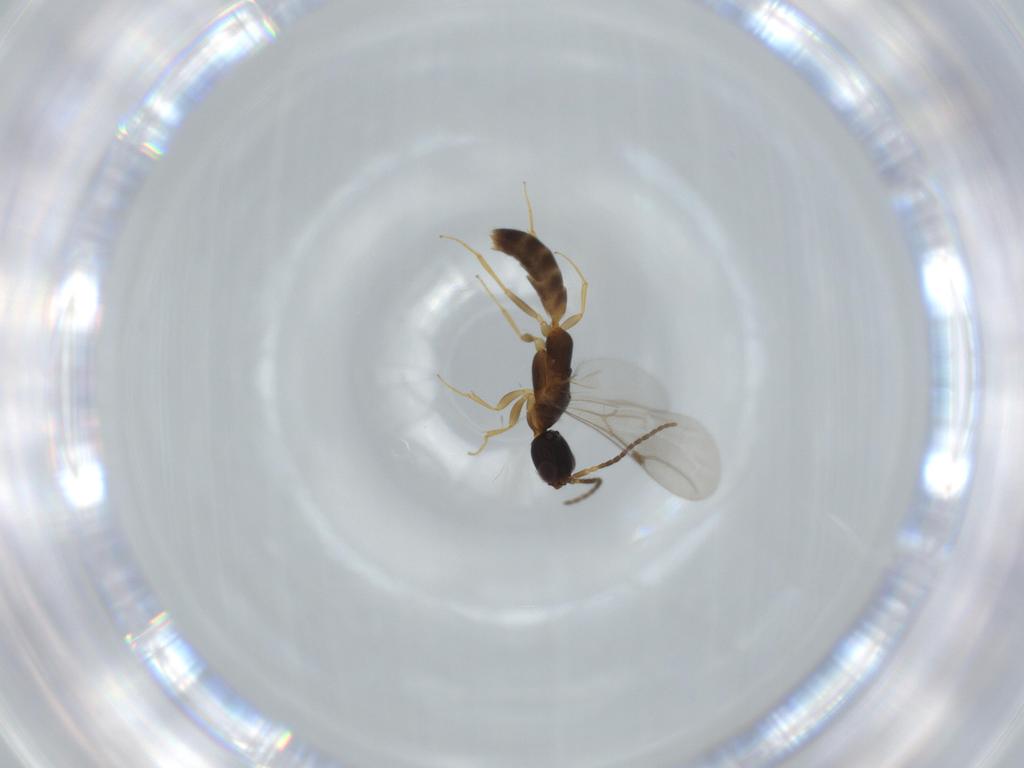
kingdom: Animalia
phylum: Arthropoda
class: Insecta
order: Hymenoptera
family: Bethylidae
